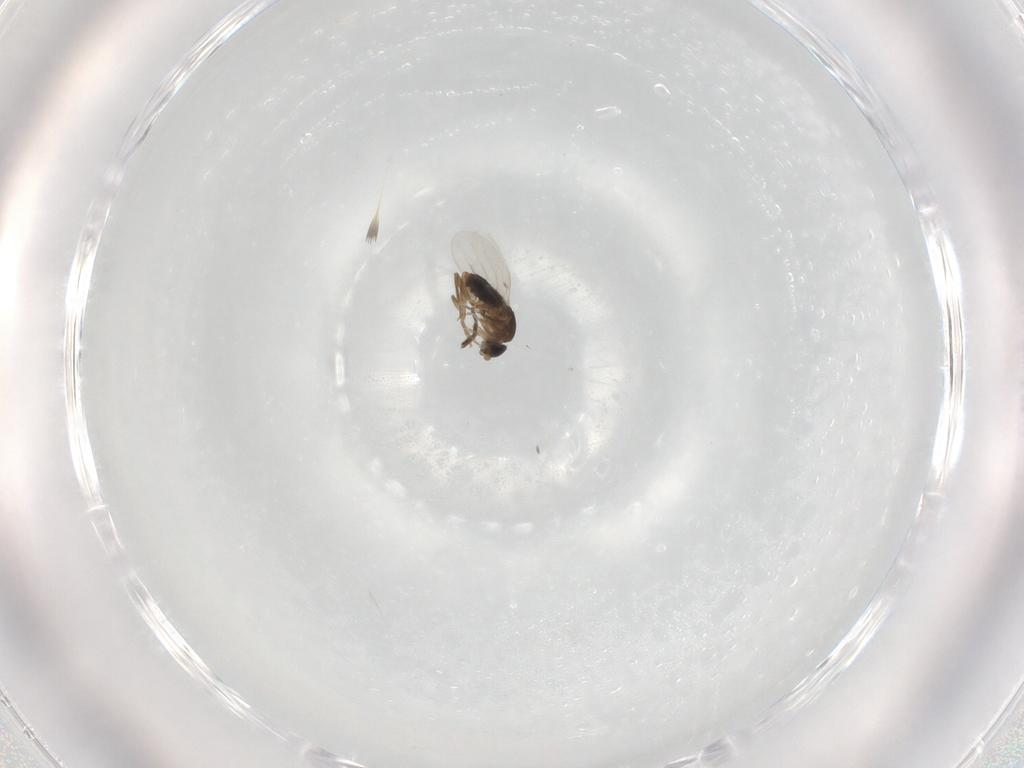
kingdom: Animalia
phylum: Arthropoda
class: Insecta
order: Diptera
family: Phoridae
